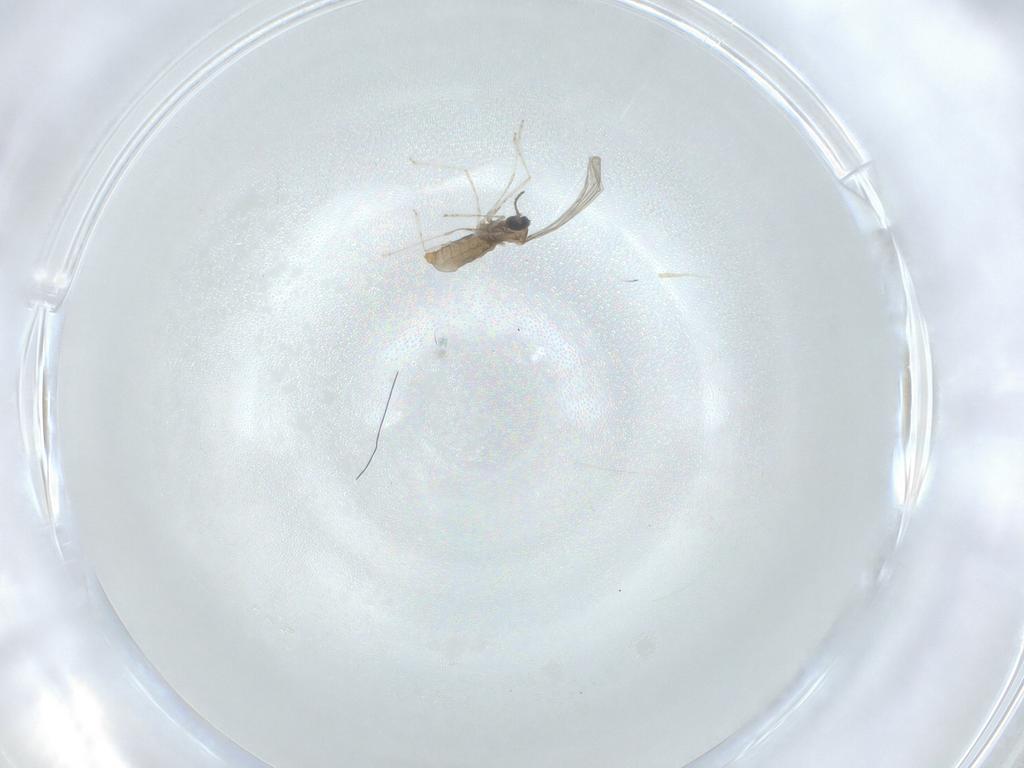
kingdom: Animalia
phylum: Arthropoda
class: Insecta
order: Diptera
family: Cecidomyiidae
